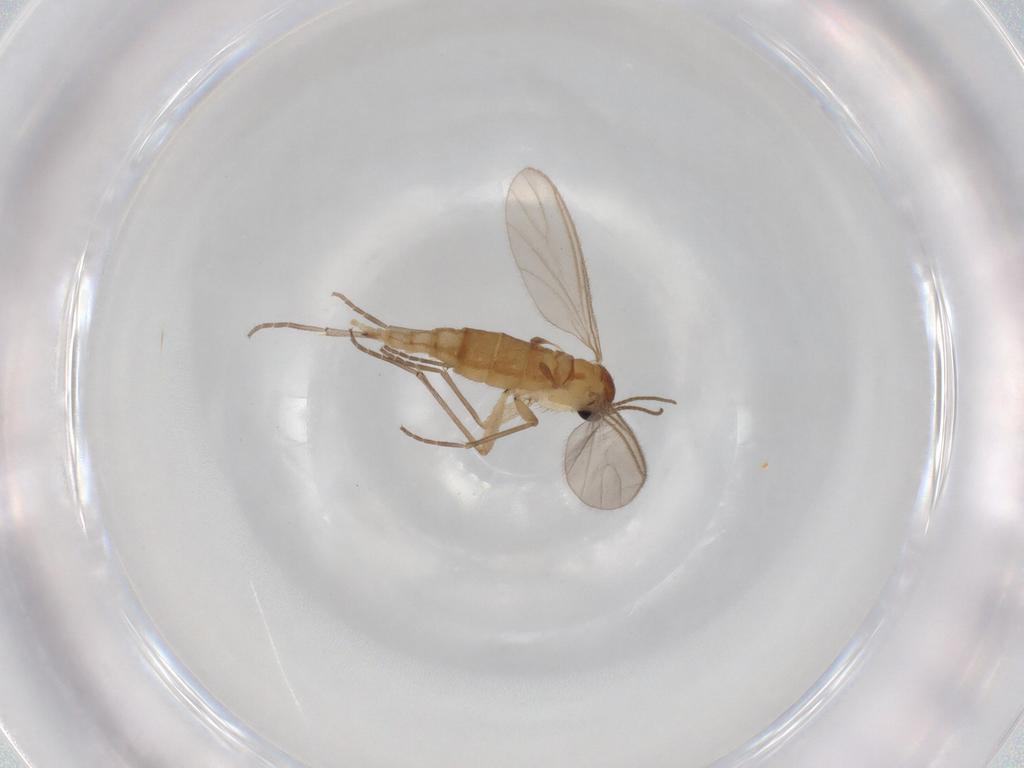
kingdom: Animalia
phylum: Arthropoda
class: Insecta
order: Diptera
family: Sciaridae
